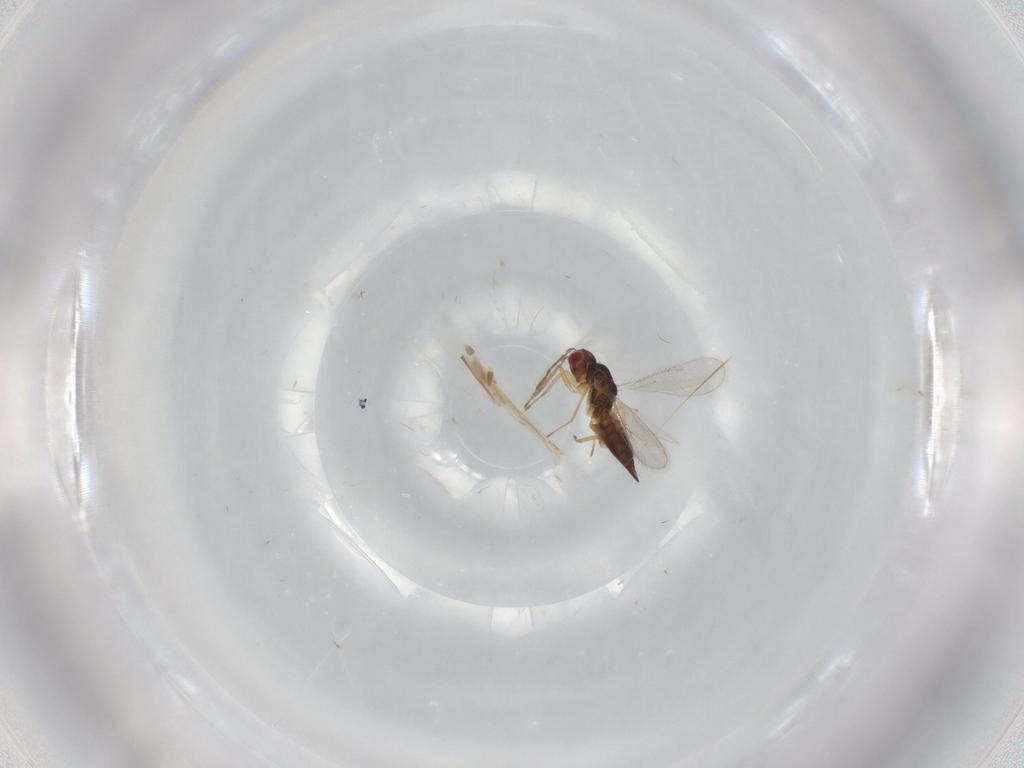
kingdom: Animalia
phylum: Arthropoda
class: Insecta
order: Hymenoptera
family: Eulophidae
